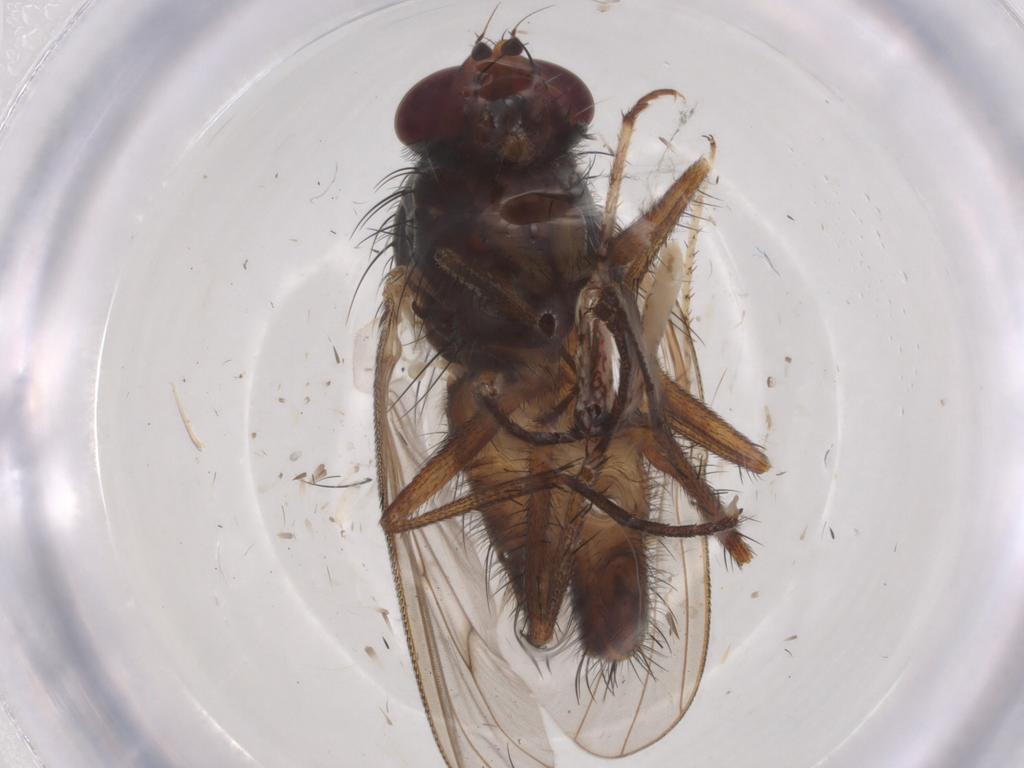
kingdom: Animalia
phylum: Arthropoda
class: Insecta
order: Diptera
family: Anthomyiidae
